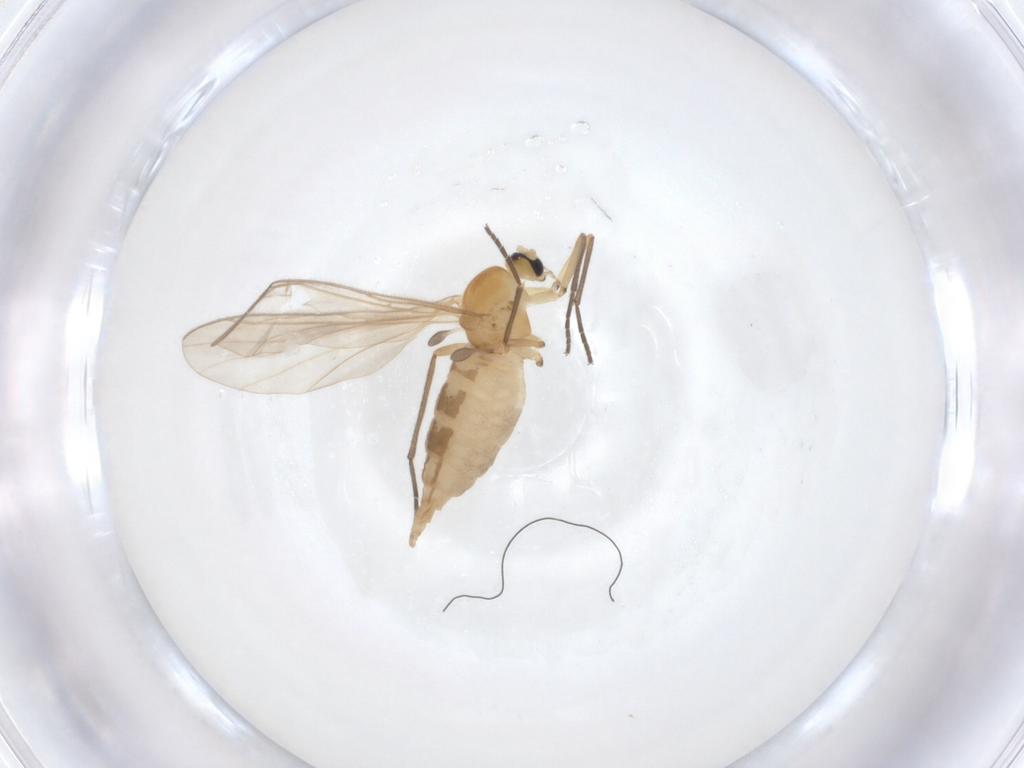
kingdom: Animalia
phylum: Arthropoda
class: Insecta
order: Diptera
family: Sciaridae
